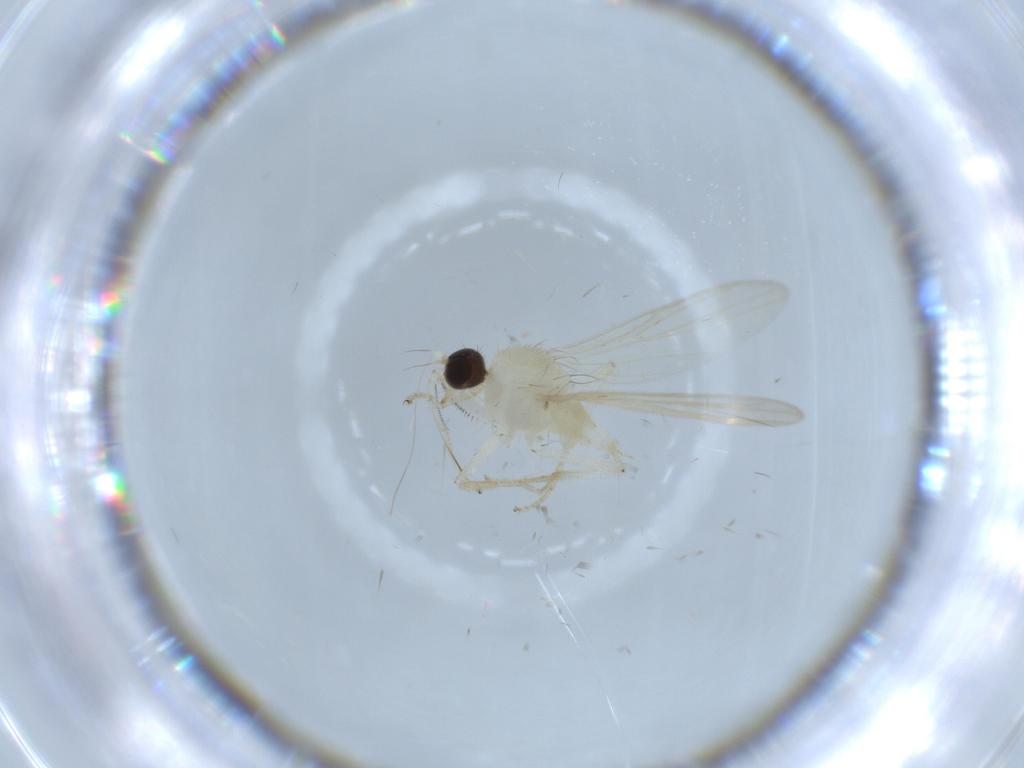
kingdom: Animalia
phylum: Arthropoda
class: Insecta
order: Diptera
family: Hybotidae
